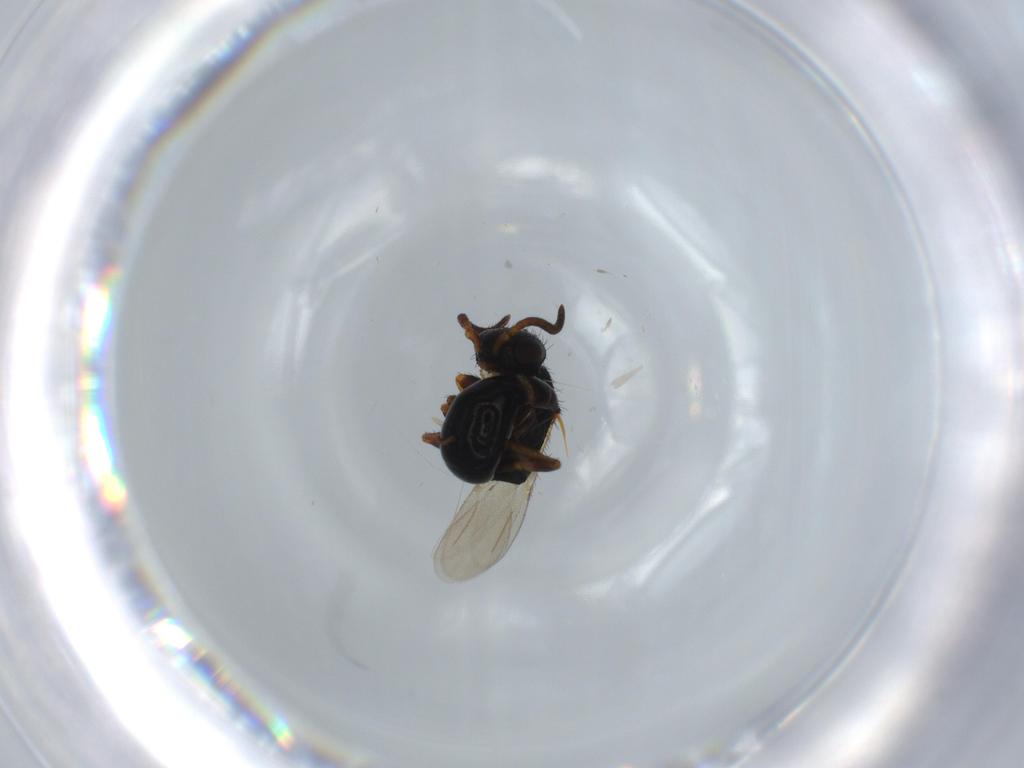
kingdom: Animalia
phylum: Arthropoda
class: Insecta
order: Hymenoptera
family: Bethylidae
